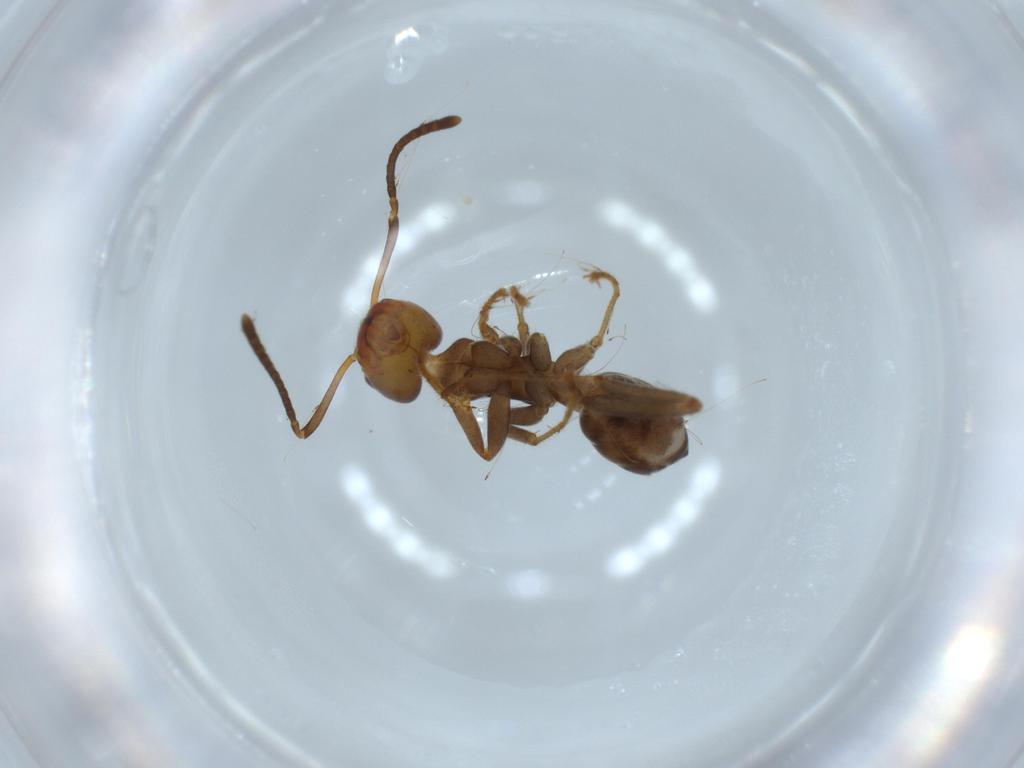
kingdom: Animalia
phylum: Arthropoda
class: Insecta
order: Hymenoptera
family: Formicidae
